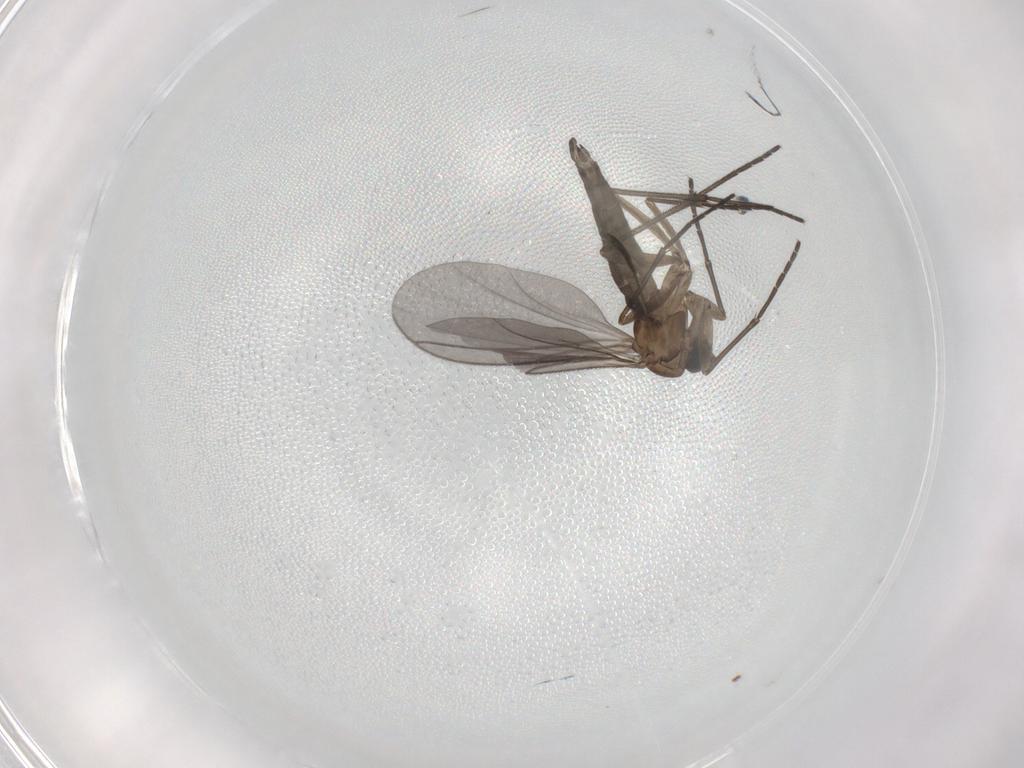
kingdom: Animalia
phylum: Arthropoda
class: Insecta
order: Diptera
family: Sciaridae
